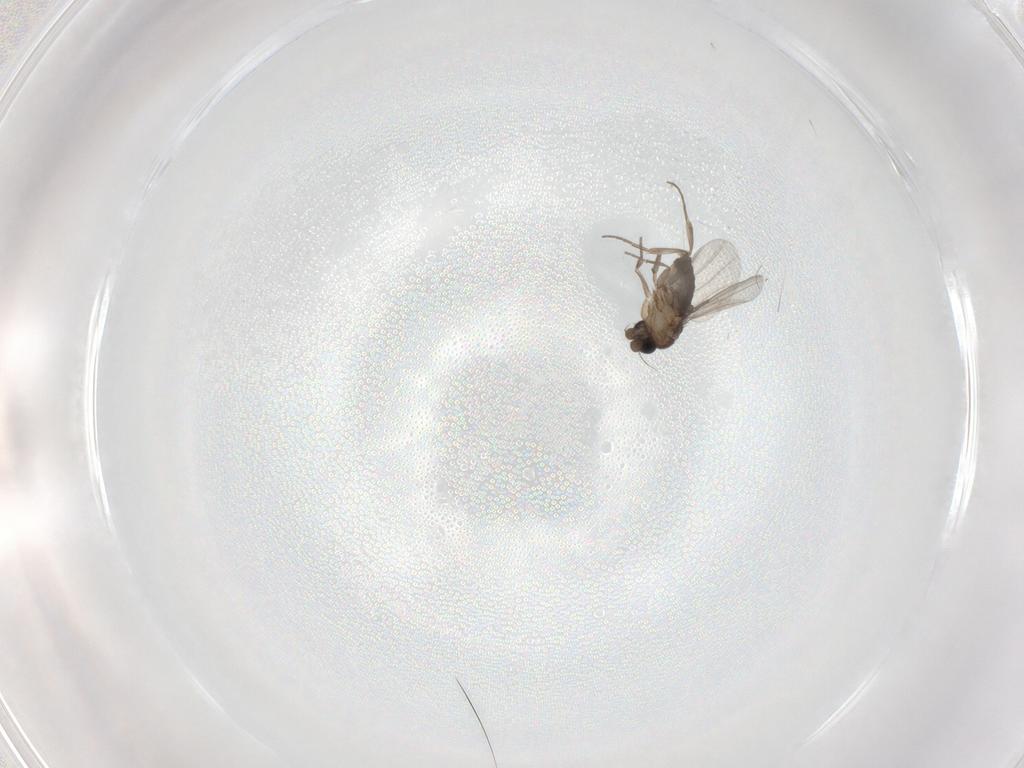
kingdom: Animalia
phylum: Arthropoda
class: Insecta
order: Diptera
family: Phoridae
